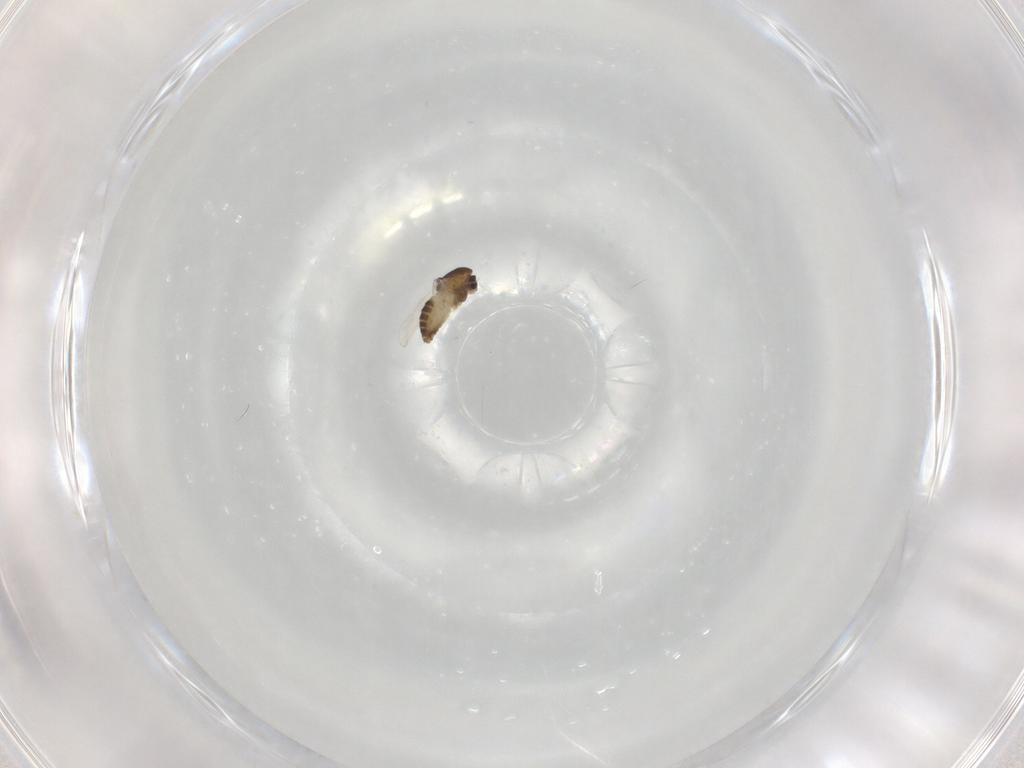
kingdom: Animalia
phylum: Arthropoda
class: Insecta
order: Diptera
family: Chironomidae
